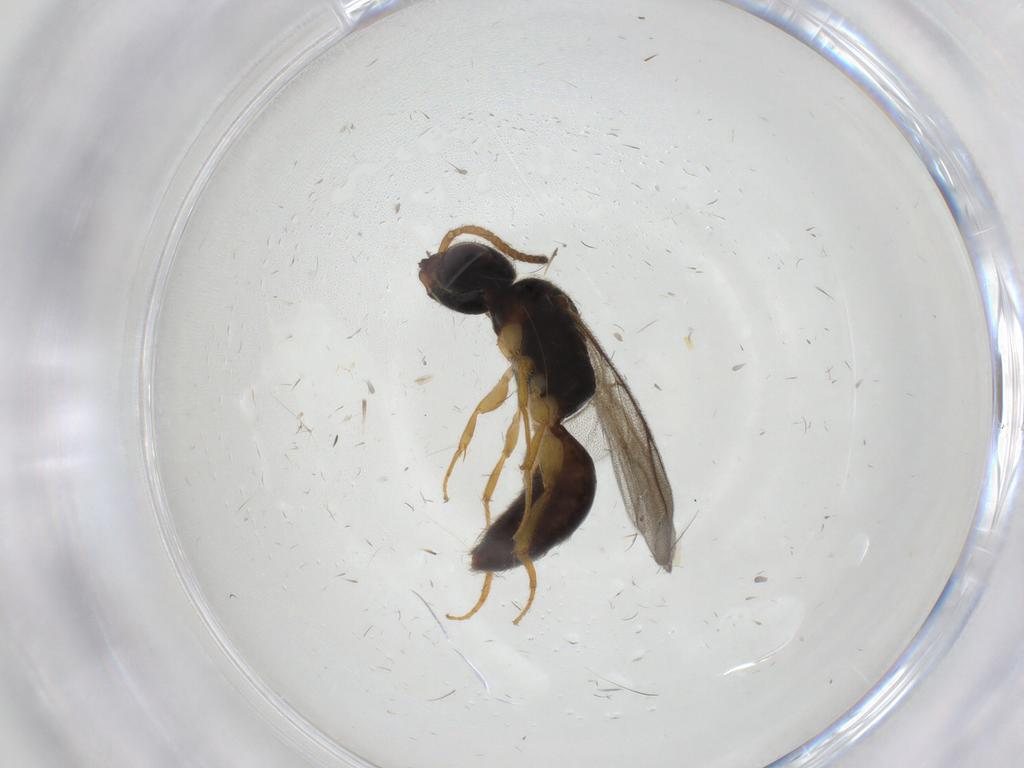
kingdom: Animalia
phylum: Arthropoda
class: Insecta
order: Hymenoptera
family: Bethylidae
